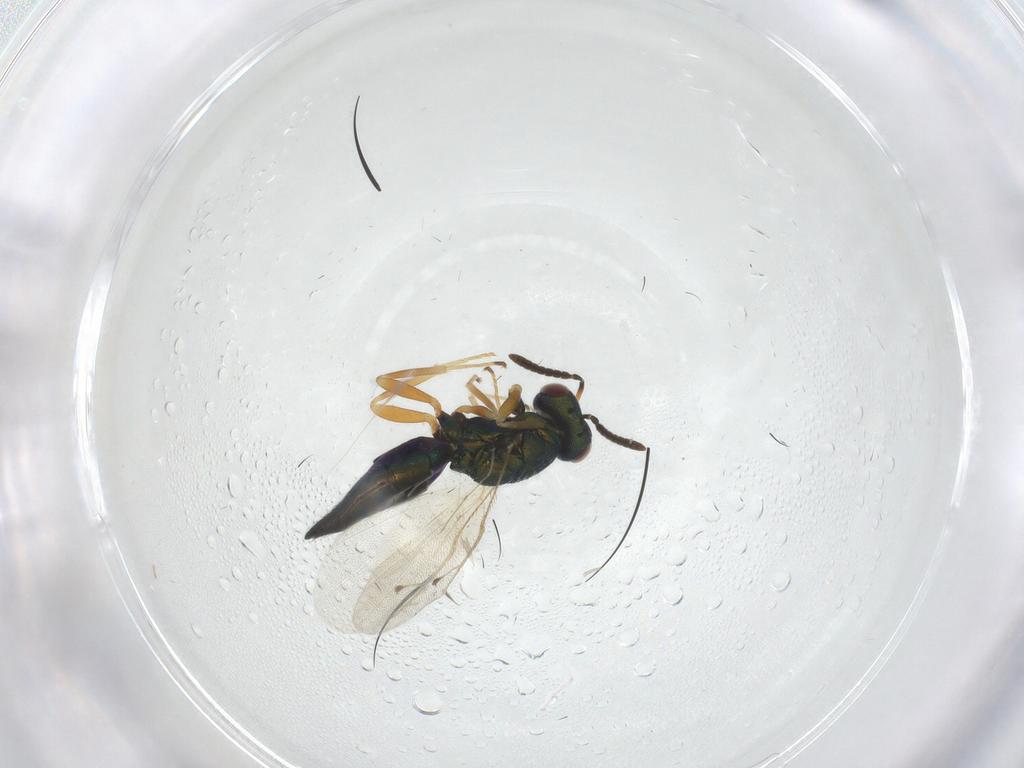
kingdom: Animalia
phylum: Arthropoda
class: Insecta
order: Hymenoptera
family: Pteromalidae
